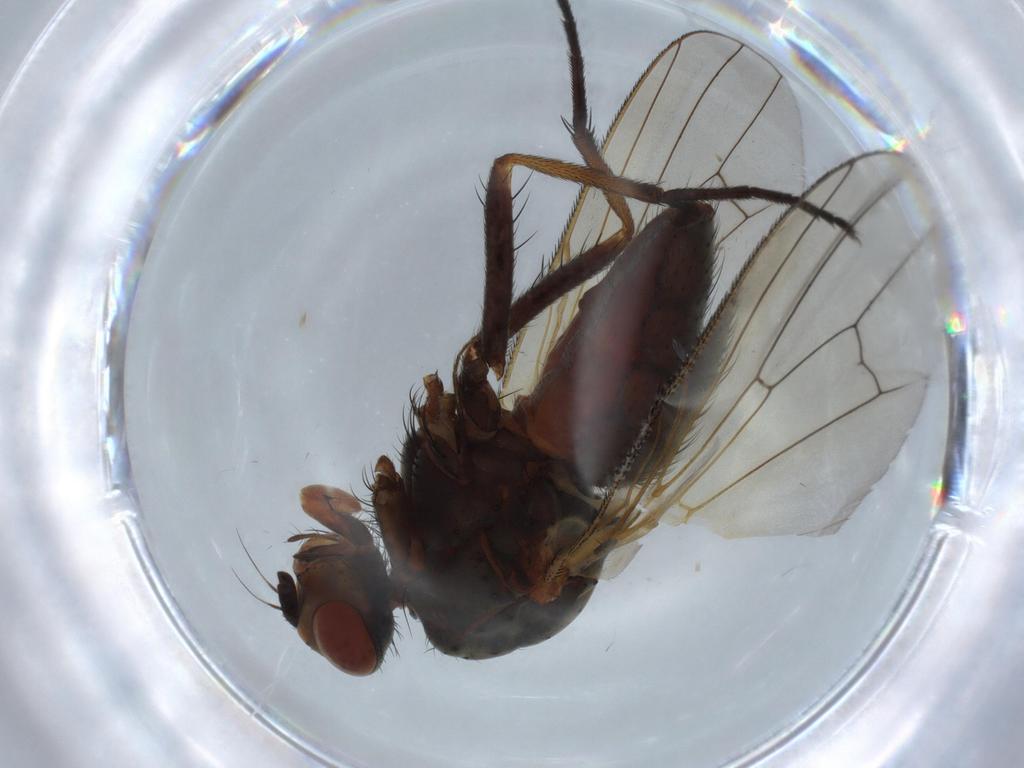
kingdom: Animalia
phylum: Arthropoda
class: Insecta
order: Diptera
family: Anthomyiidae
